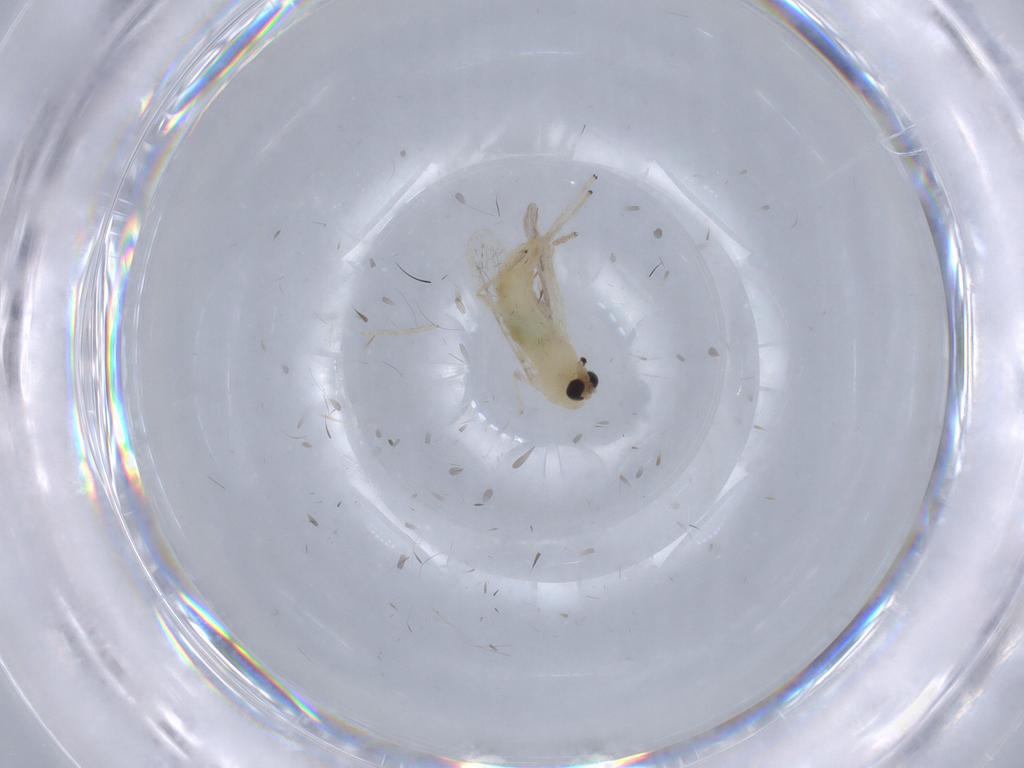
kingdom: Animalia
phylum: Arthropoda
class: Insecta
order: Diptera
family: Chironomidae
